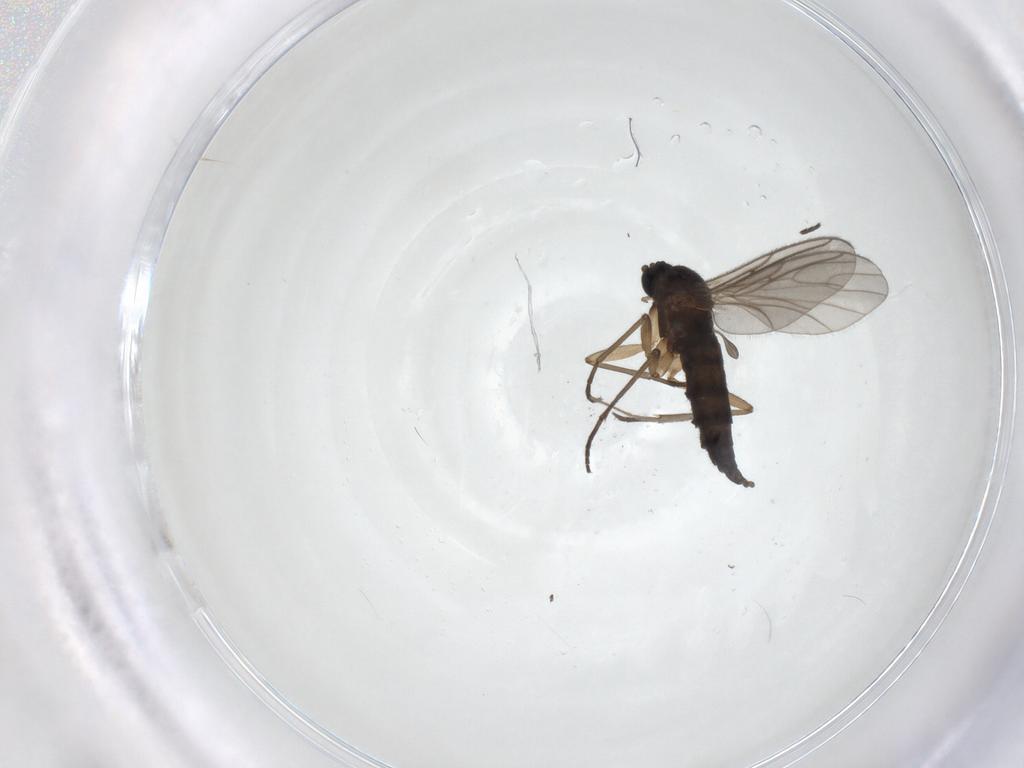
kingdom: Animalia
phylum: Arthropoda
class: Insecta
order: Diptera
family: Sciaridae
